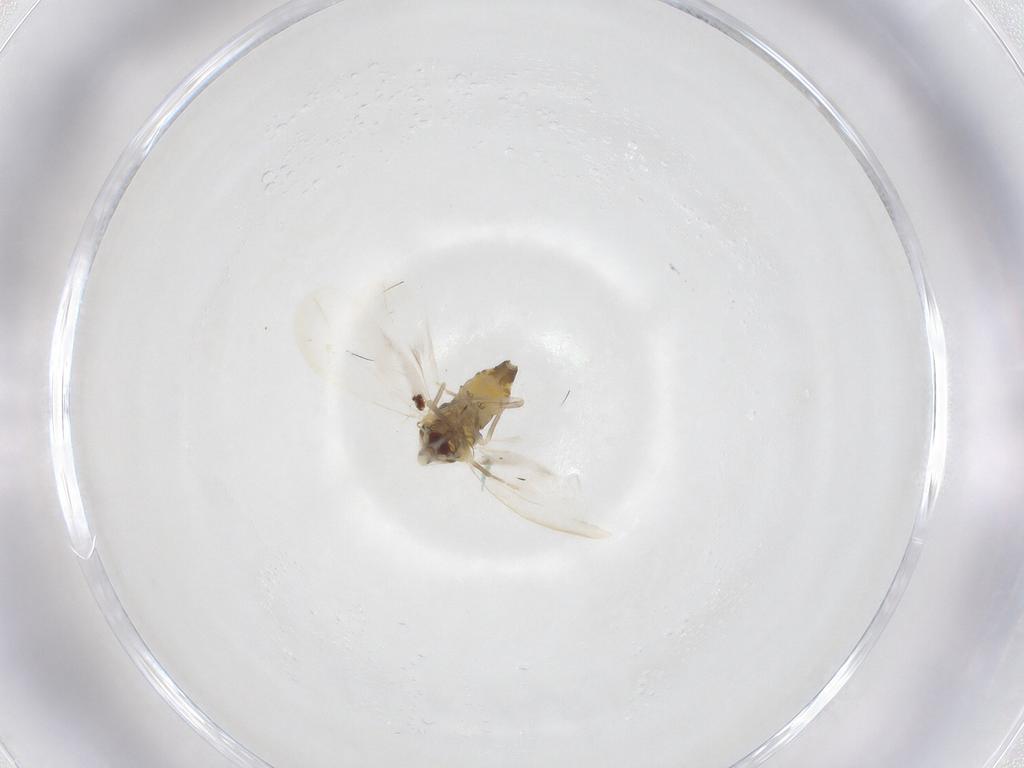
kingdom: Animalia
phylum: Arthropoda
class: Insecta
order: Hemiptera
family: Aleyrodidae
